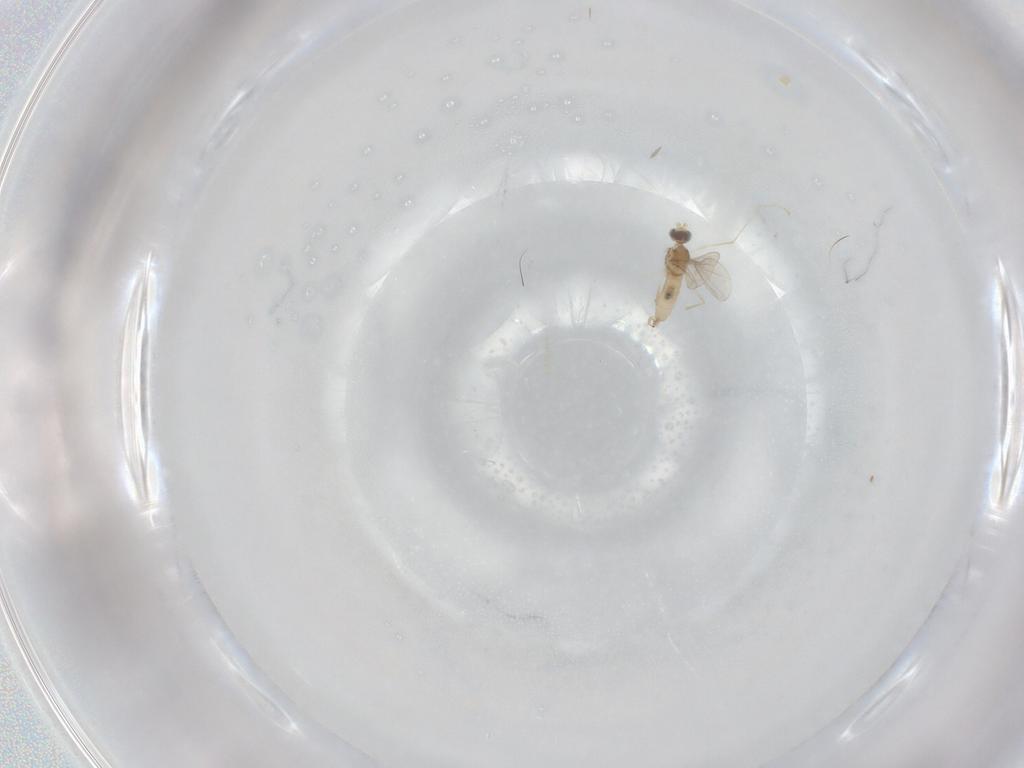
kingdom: Animalia
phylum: Arthropoda
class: Insecta
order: Diptera
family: Cecidomyiidae
